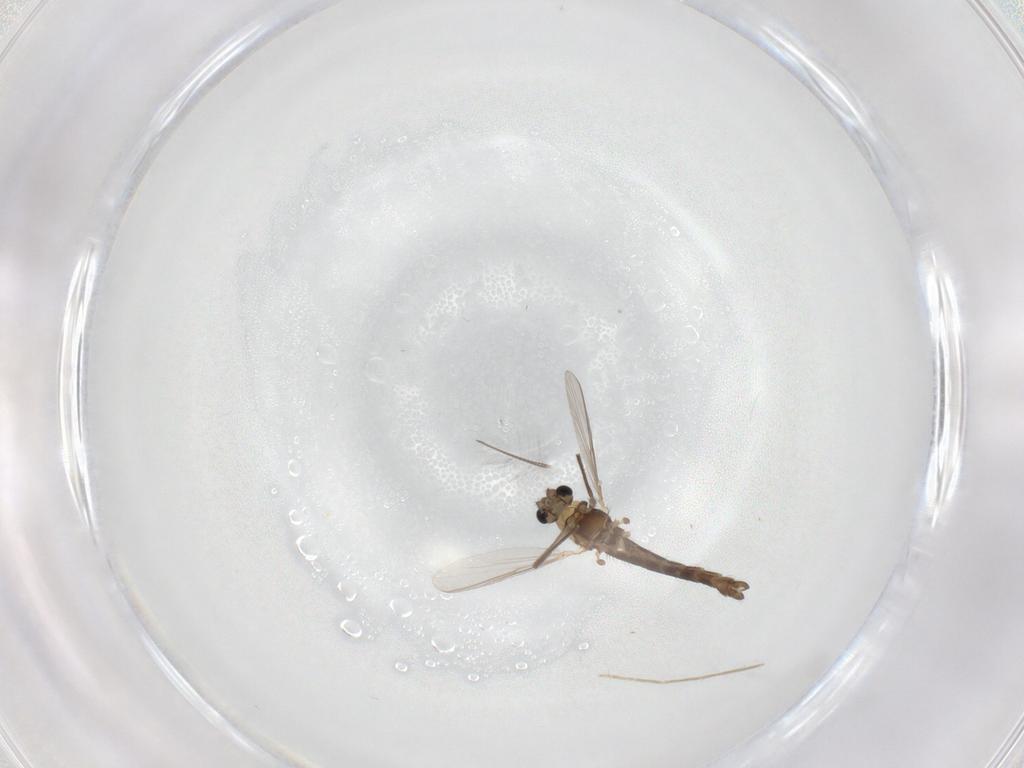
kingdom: Animalia
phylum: Arthropoda
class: Insecta
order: Diptera
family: Chironomidae
